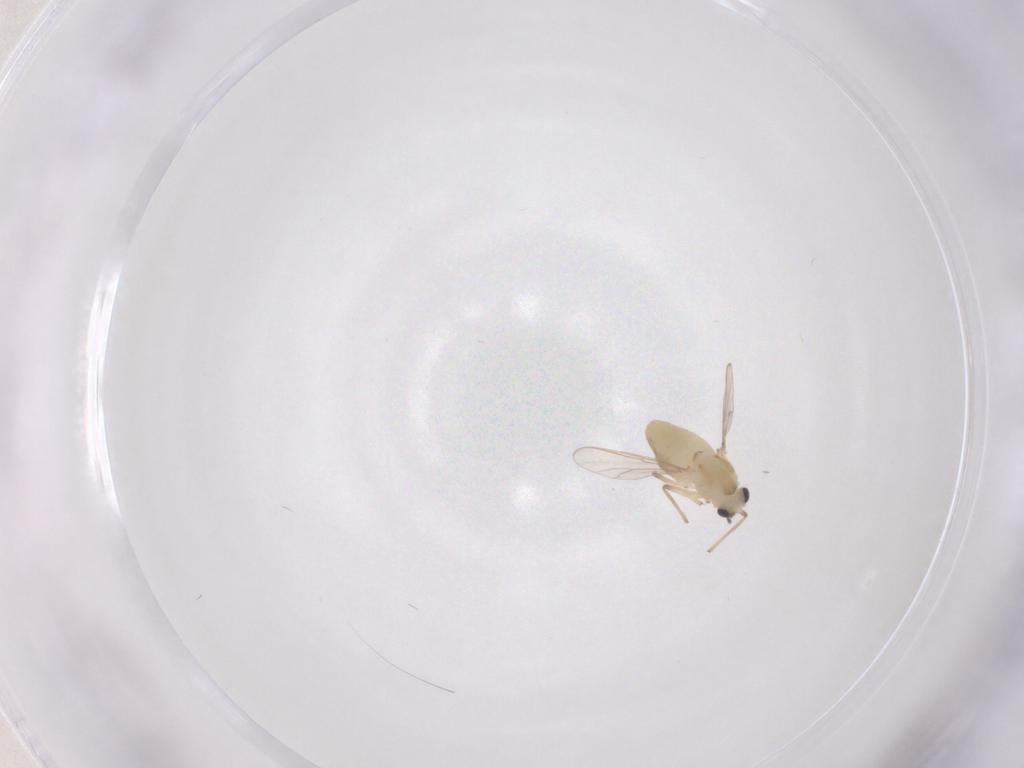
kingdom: Animalia
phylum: Arthropoda
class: Insecta
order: Diptera
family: Chironomidae
